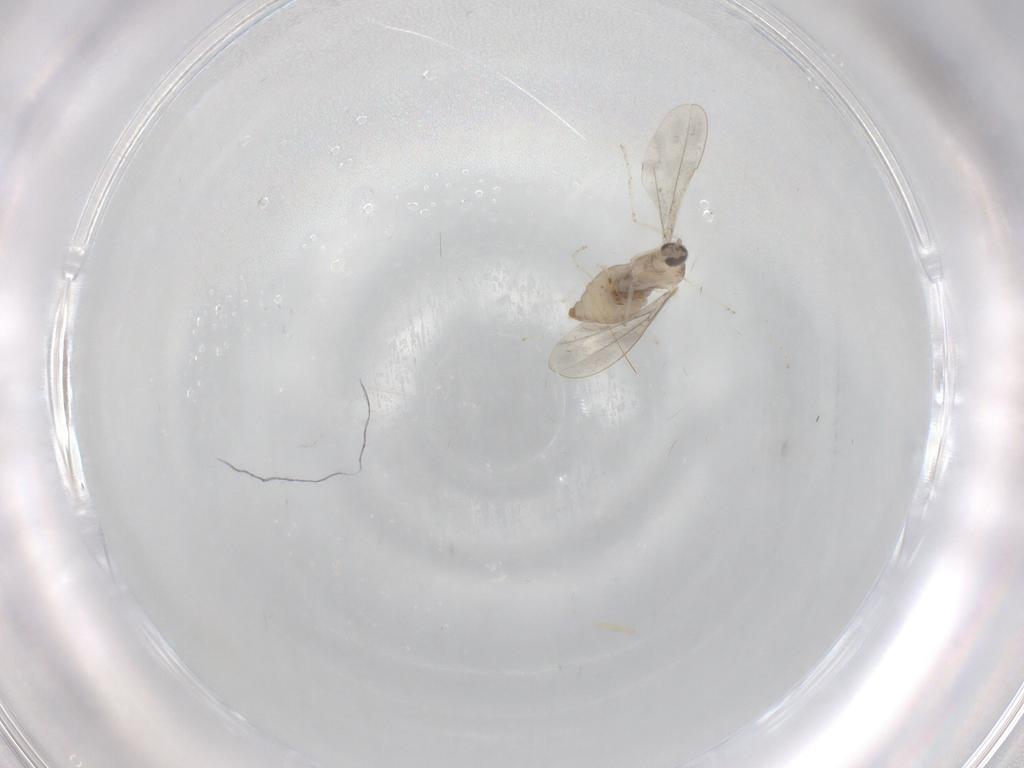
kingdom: Animalia
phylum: Arthropoda
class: Insecta
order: Diptera
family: Cecidomyiidae
